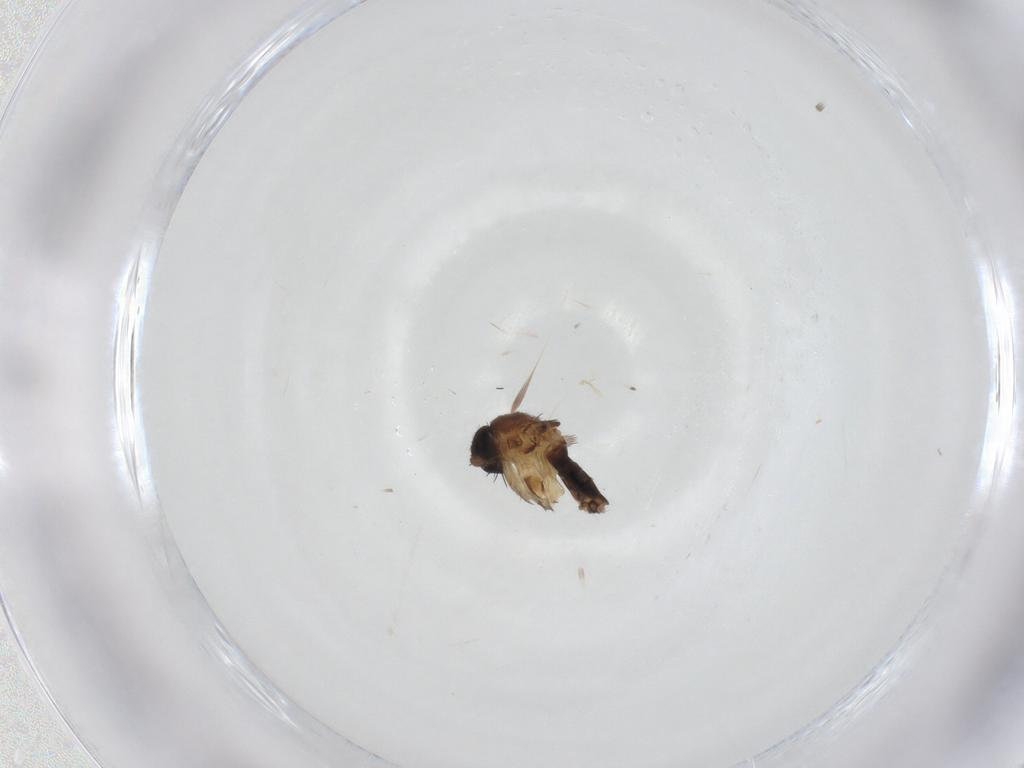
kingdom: Animalia
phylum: Arthropoda
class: Insecta
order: Diptera
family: Phoridae
